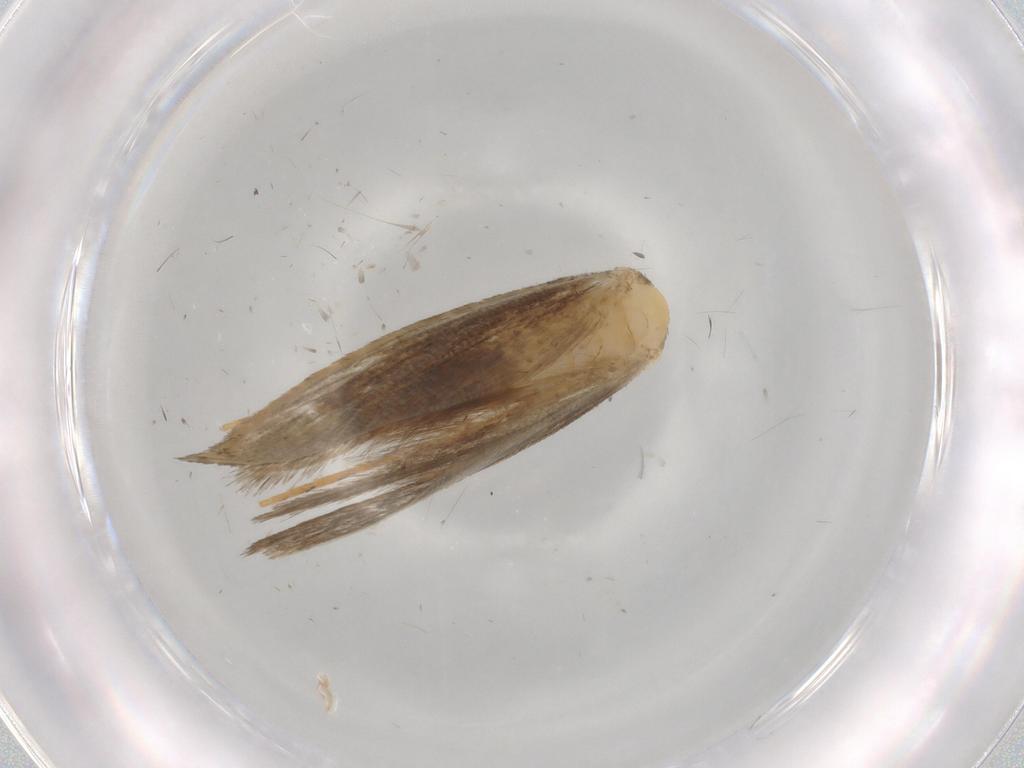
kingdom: Animalia
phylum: Arthropoda
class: Insecta
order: Lepidoptera
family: Tineidae
